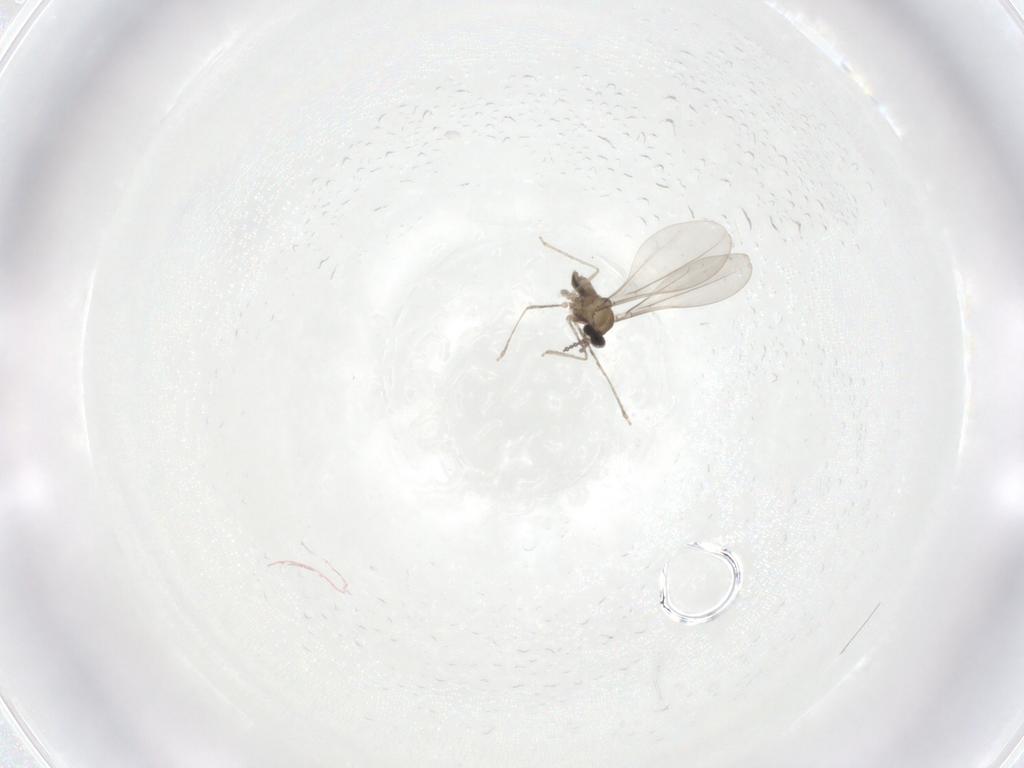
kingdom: Animalia
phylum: Arthropoda
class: Insecta
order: Diptera
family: Cecidomyiidae
